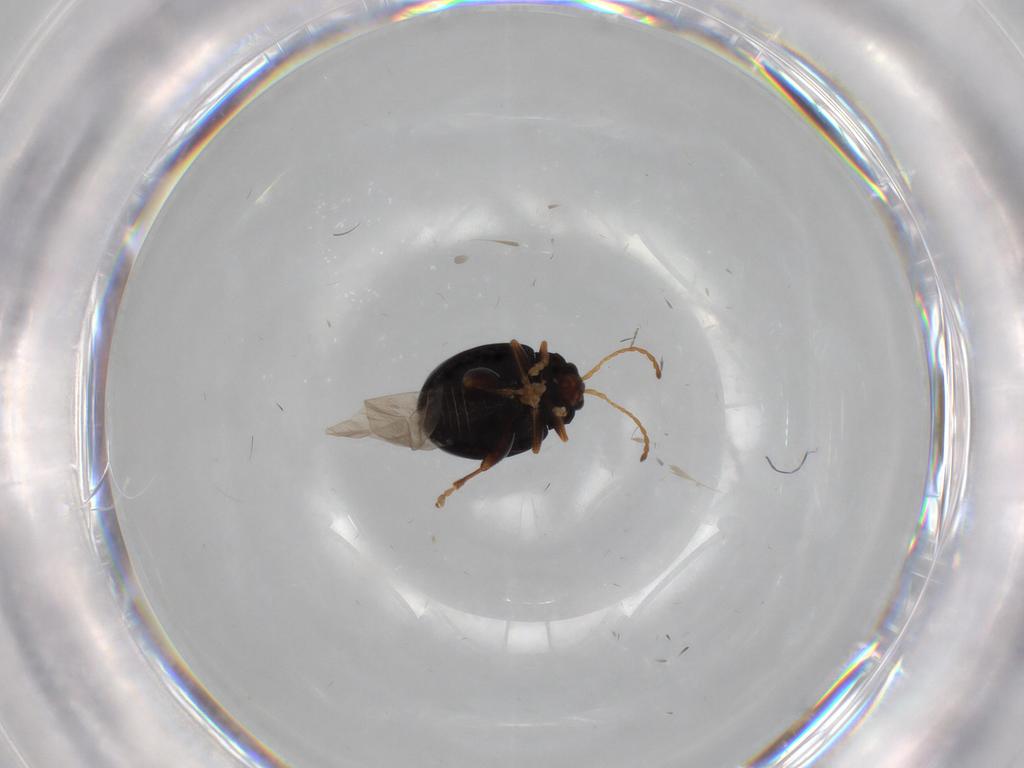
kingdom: Animalia
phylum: Arthropoda
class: Insecta
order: Coleoptera
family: Chrysomelidae
